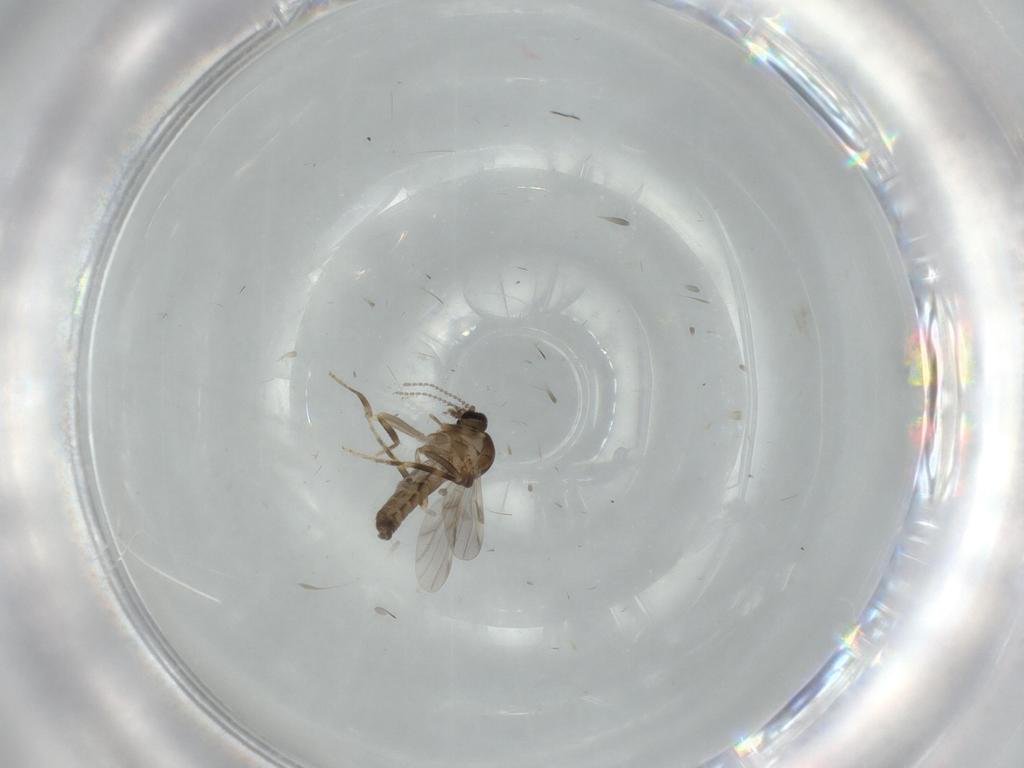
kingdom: Animalia
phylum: Arthropoda
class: Insecta
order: Diptera
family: Ceratopogonidae
